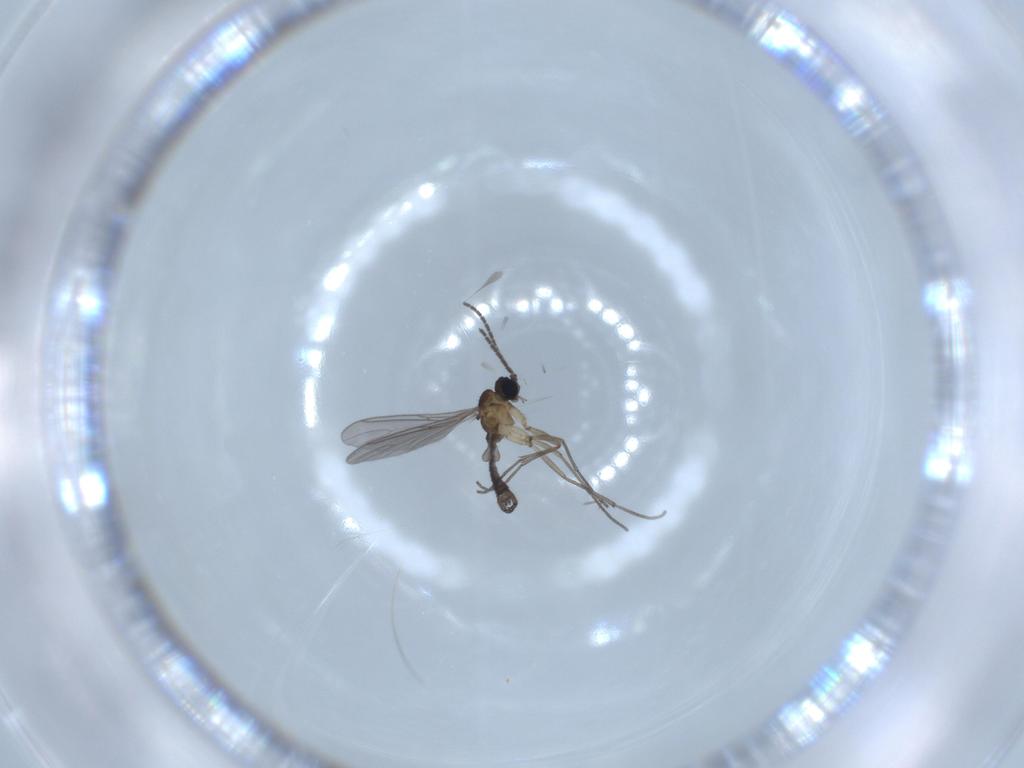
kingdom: Animalia
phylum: Arthropoda
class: Insecta
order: Diptera
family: Sciaridae
